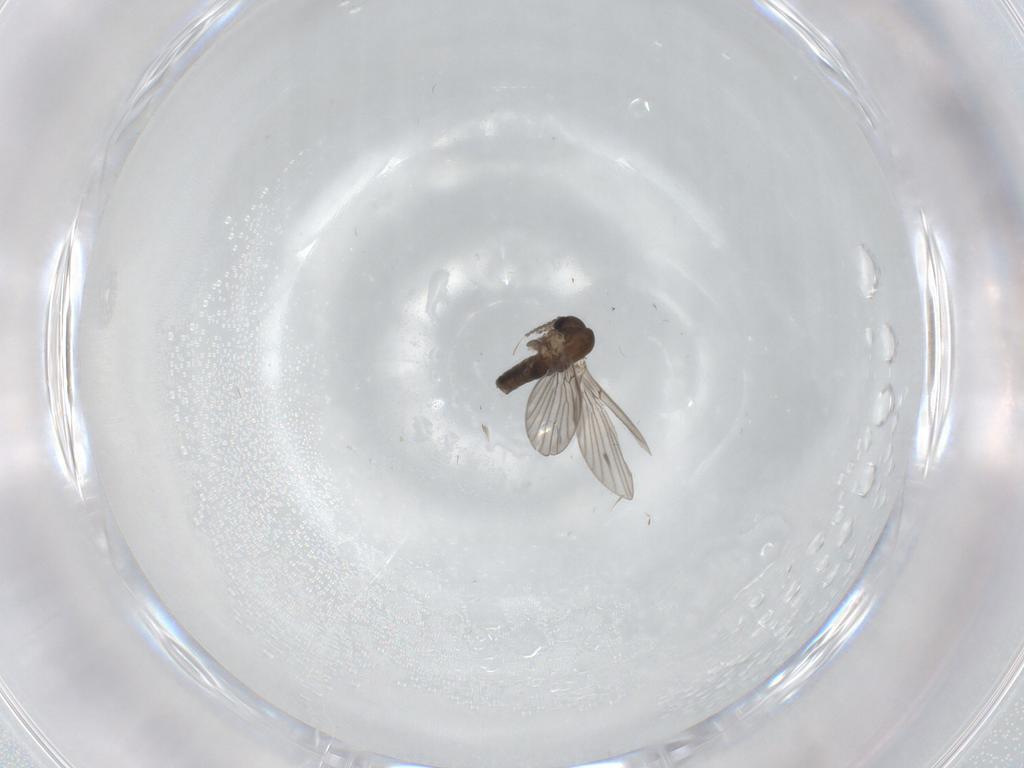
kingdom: Animalia
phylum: Arthropoda
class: Insecta
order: Diptera
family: Psychodidae
